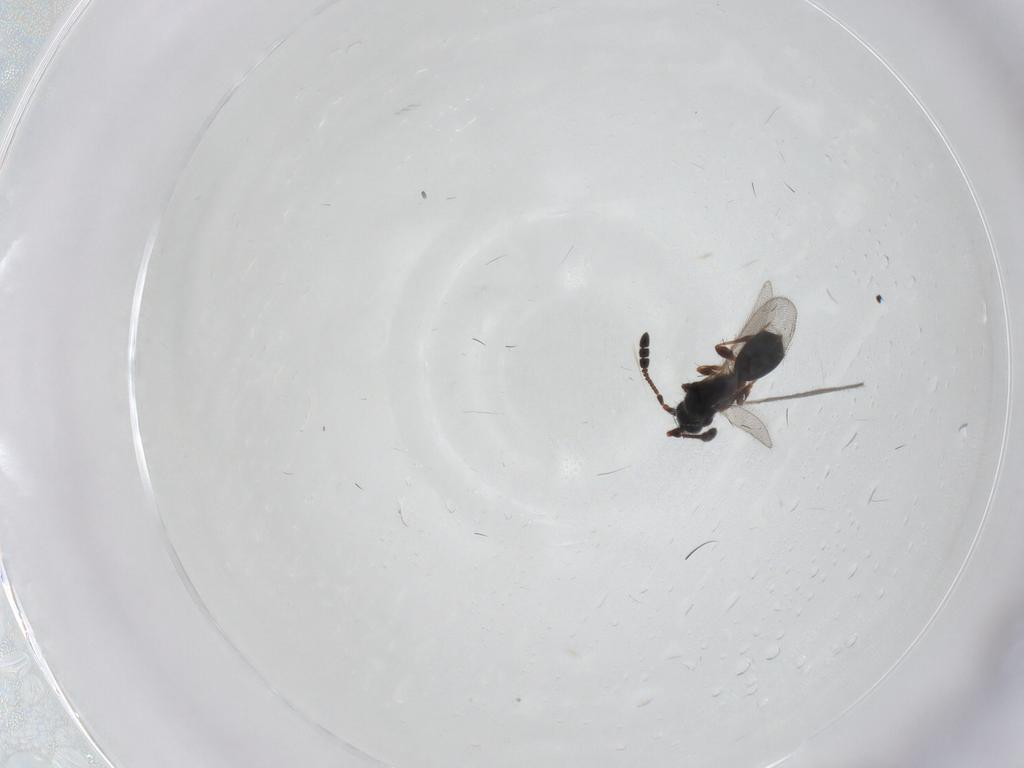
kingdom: Animalia
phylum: Arthropoda
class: Insecta
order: Hymenoptera
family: Diapriidae
